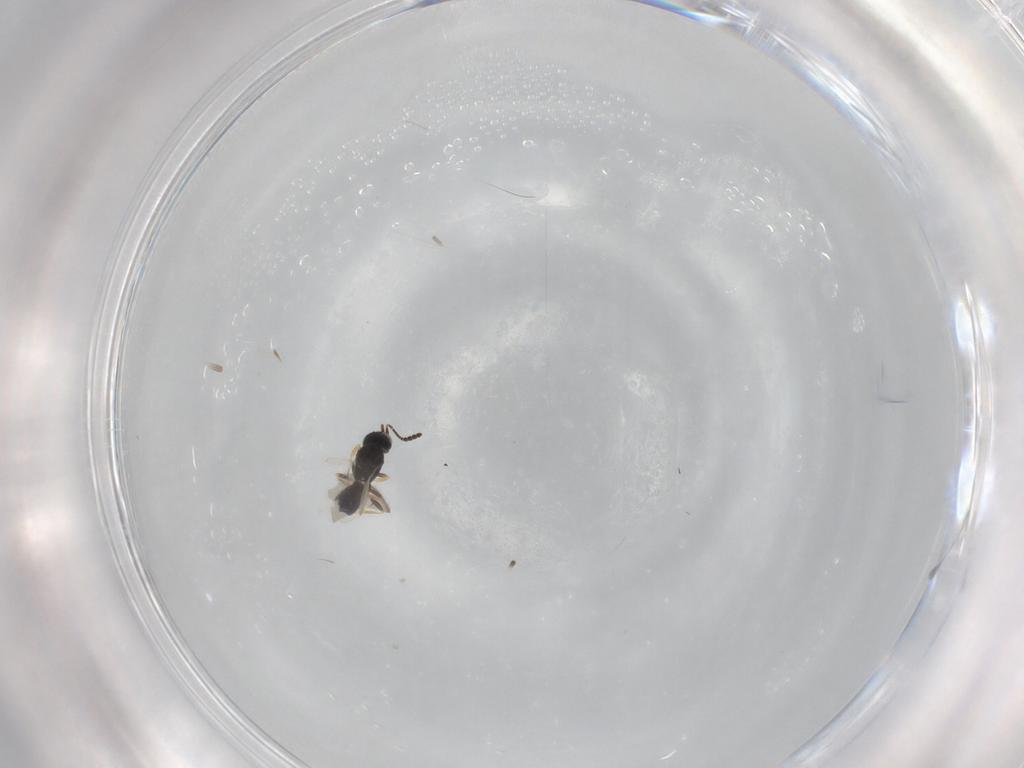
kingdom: Animalia
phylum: Arthropoda
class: Insecta
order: Hymenoptera
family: Scelionidae
